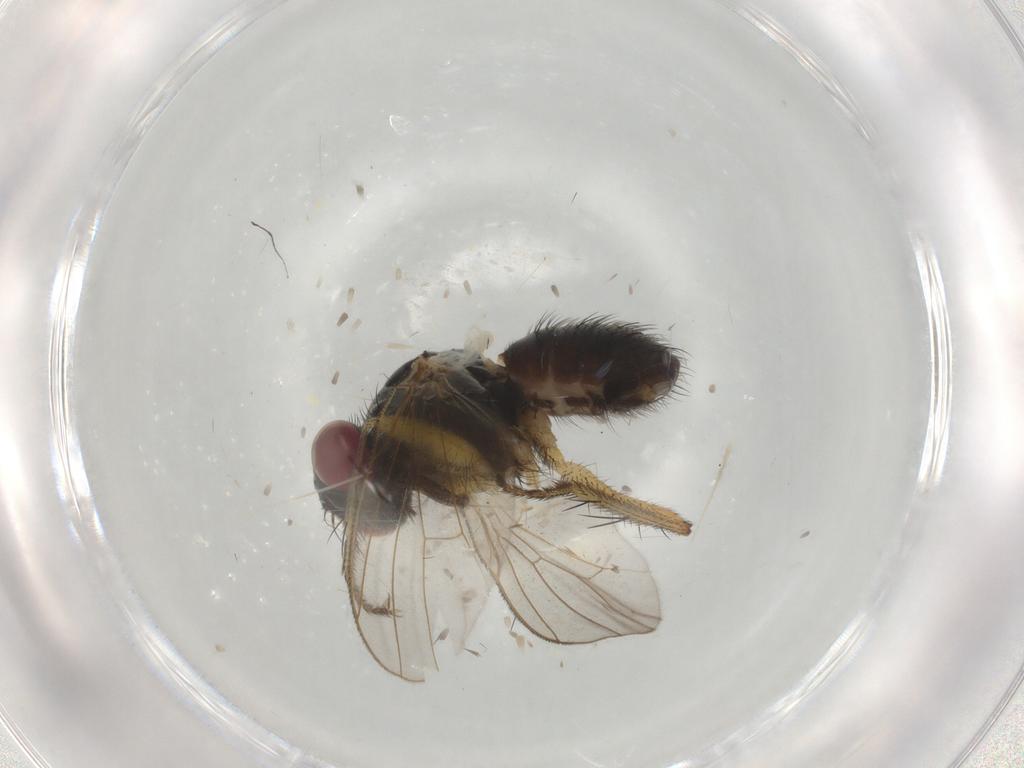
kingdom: Animalia
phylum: Arthropoda
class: Insecta
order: Diptera
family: Muscidae
